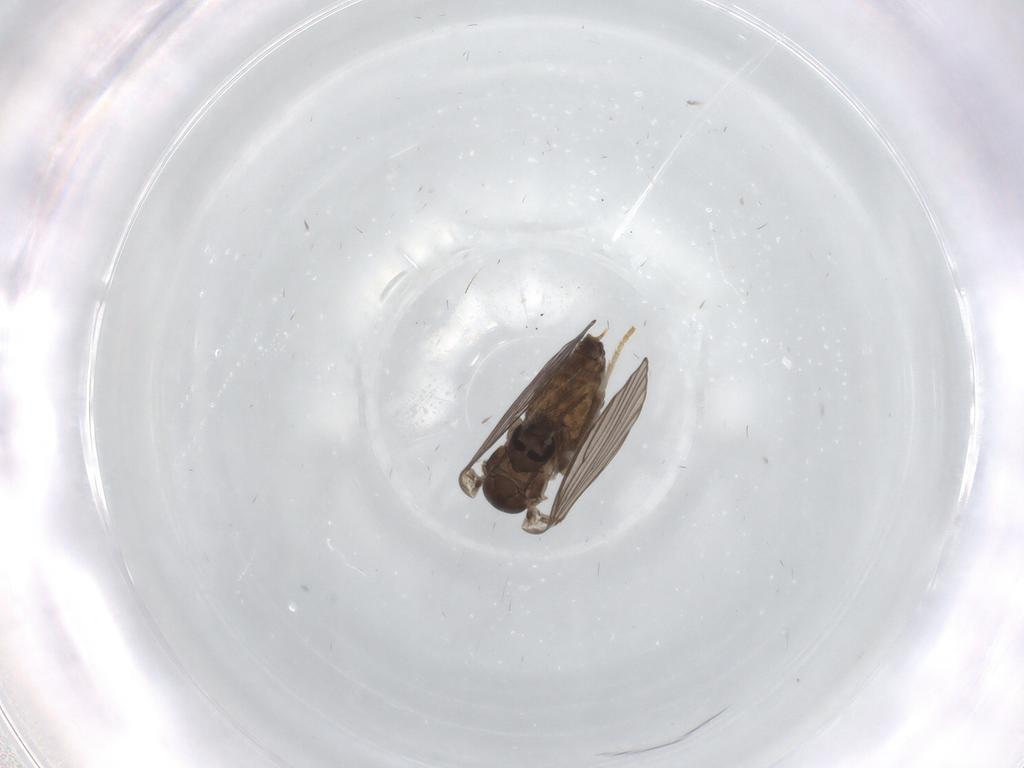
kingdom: Animalia
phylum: Arthropoda
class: Insecta
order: Diptera
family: Psychodidae
